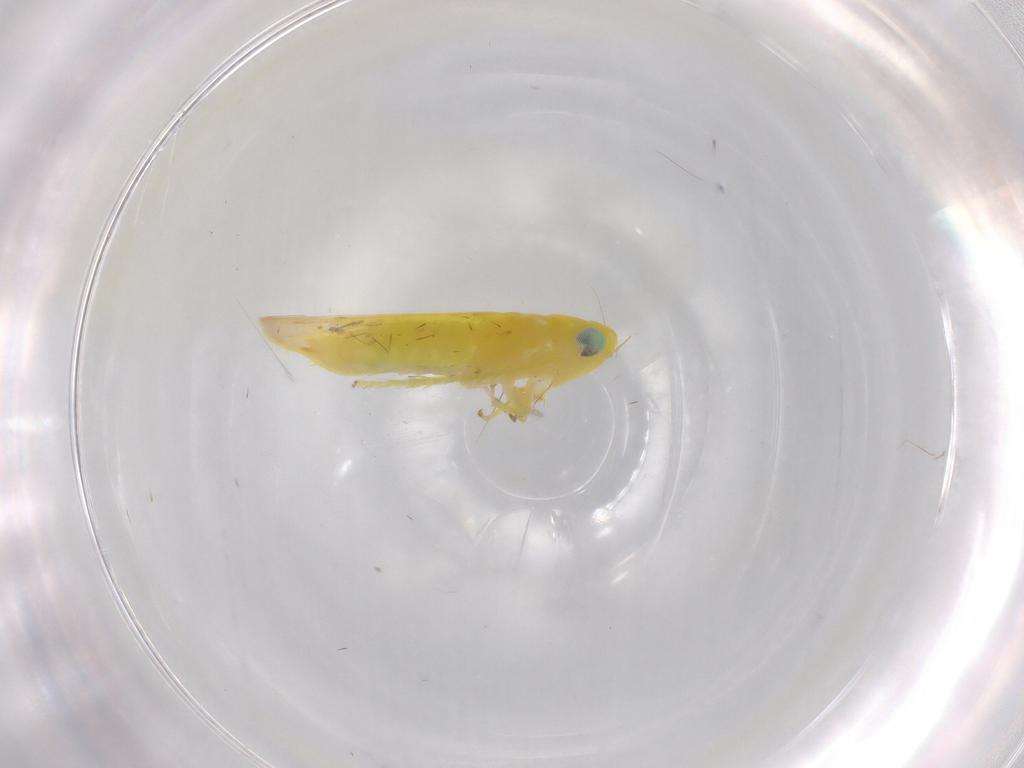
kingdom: Animalia
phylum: Arthropoda
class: Insecta
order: Hemiptera
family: Cicadellidae
